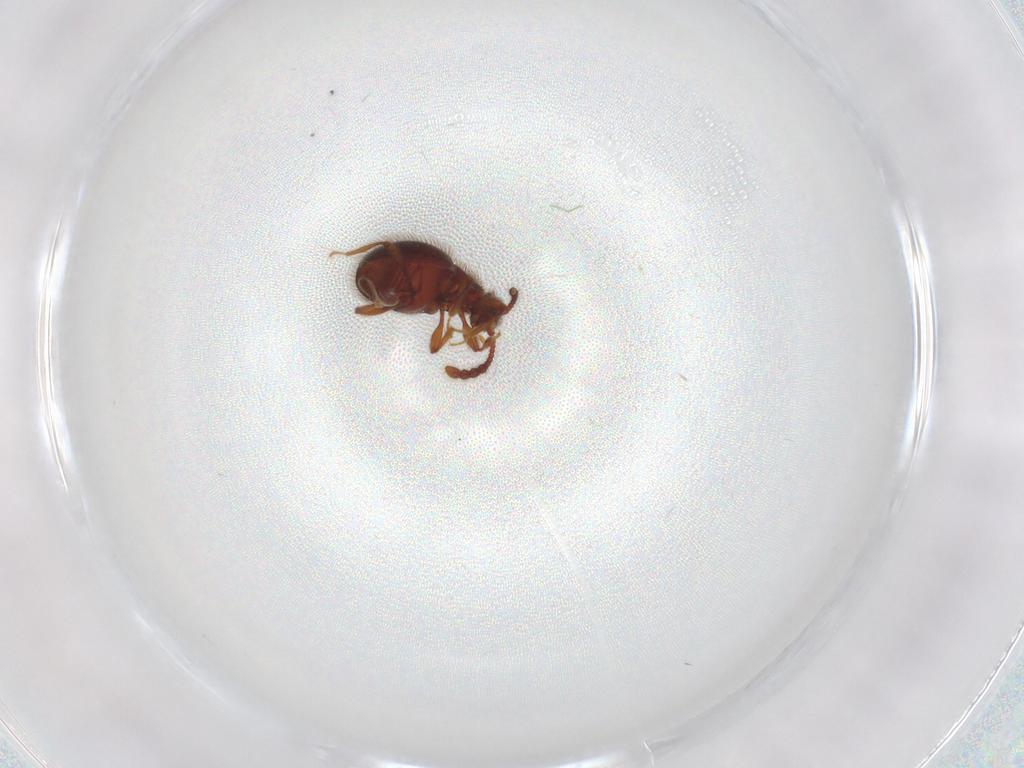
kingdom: Animalia
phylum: Arthropoda
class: Insecta
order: Coleoptera
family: Staphylinidae
